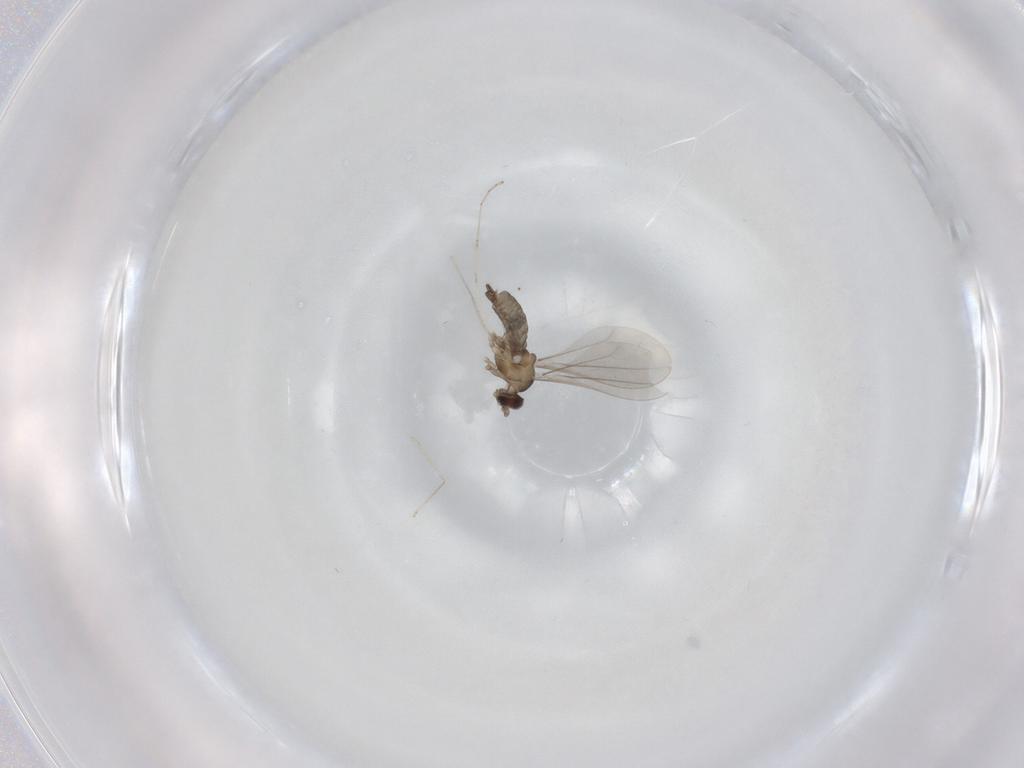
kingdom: Animalia
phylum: Arthropoda
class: Insecta
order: Diptera
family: Cecidomyiidae
